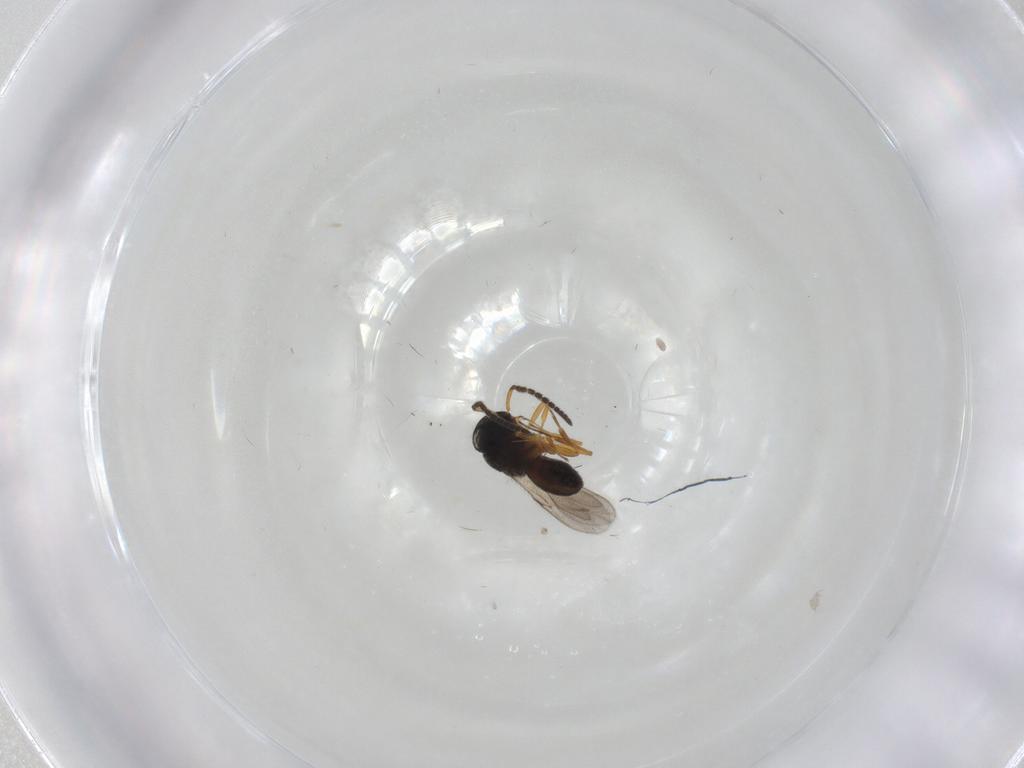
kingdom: Animalia
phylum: Arthropoda
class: Insecta
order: Hymenoptera
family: Scelionidae
